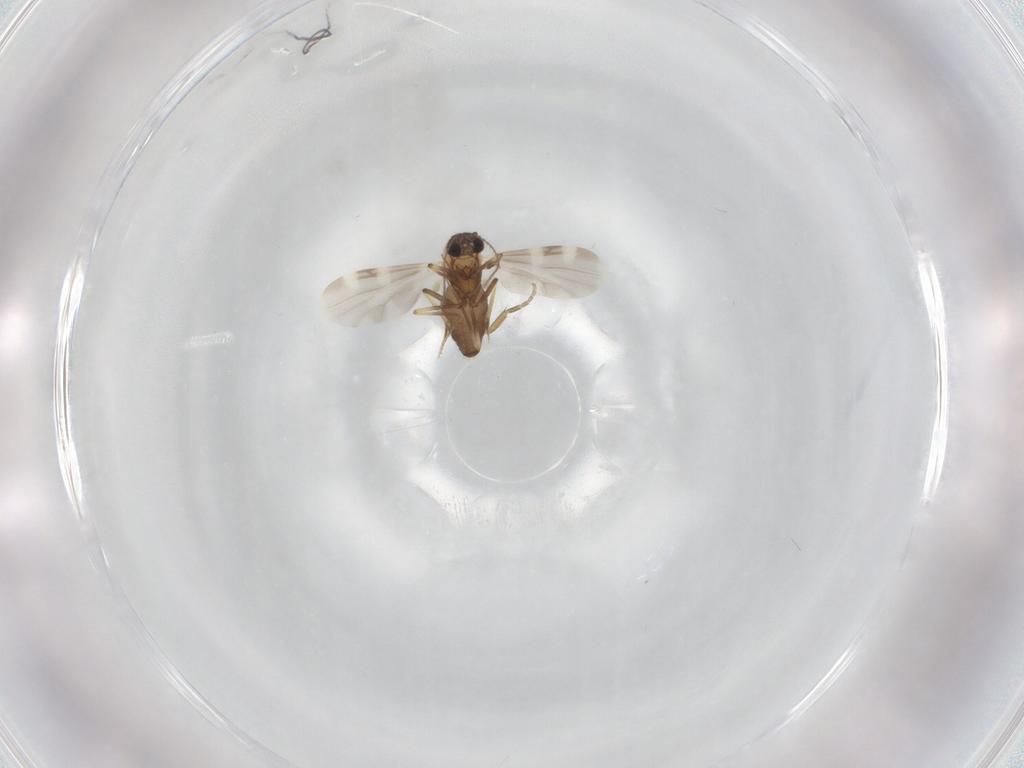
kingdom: Animalia
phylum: Arthropoda
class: Insecta
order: Diptera
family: Ceratopogonidae
